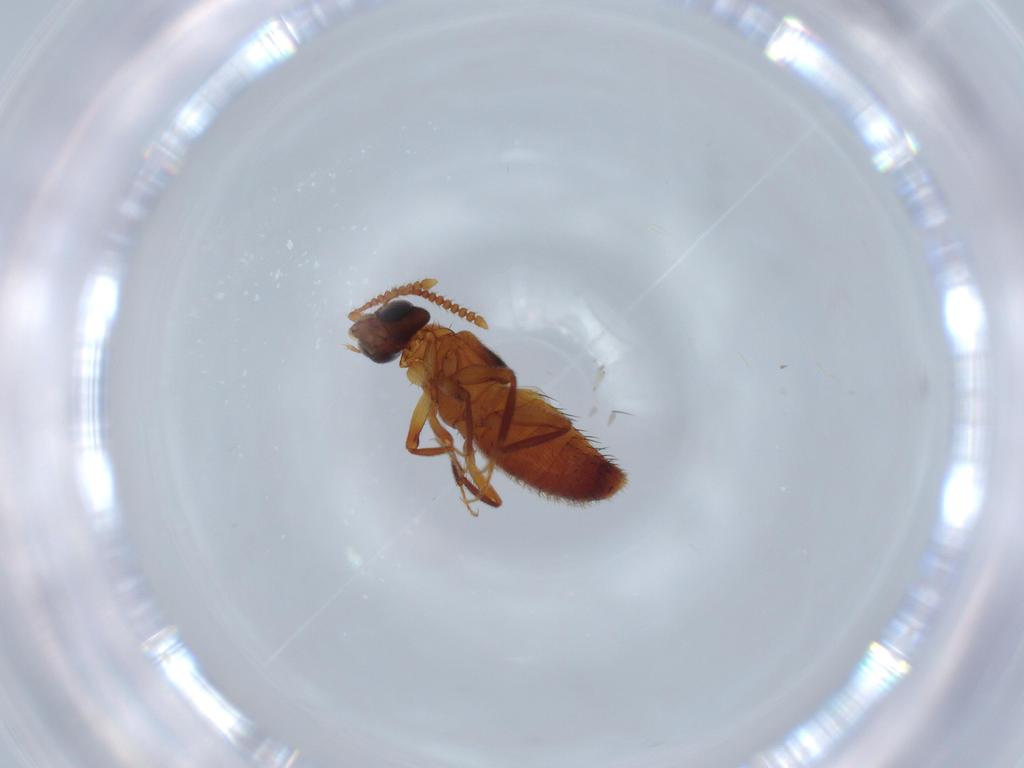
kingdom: Animalia
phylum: Arthropoda
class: Insecta
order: Coleoptera
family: Staphylinidae
